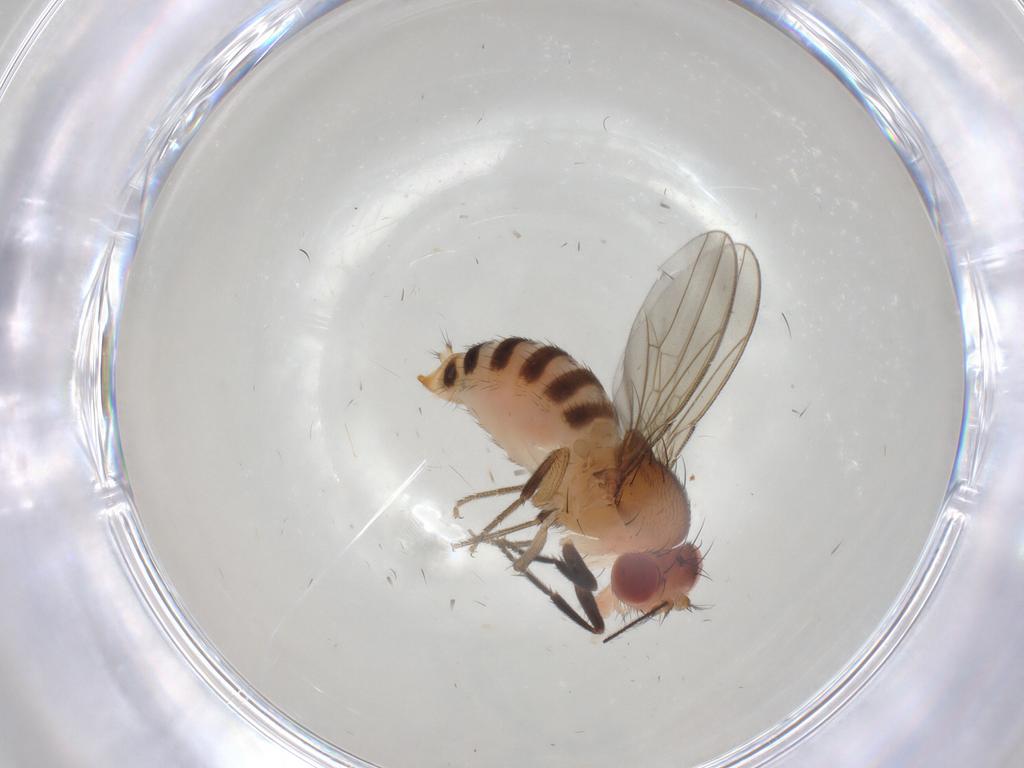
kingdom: Animalia
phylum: Arthropoda
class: Insecta
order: Diptera
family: Drosophilidae
